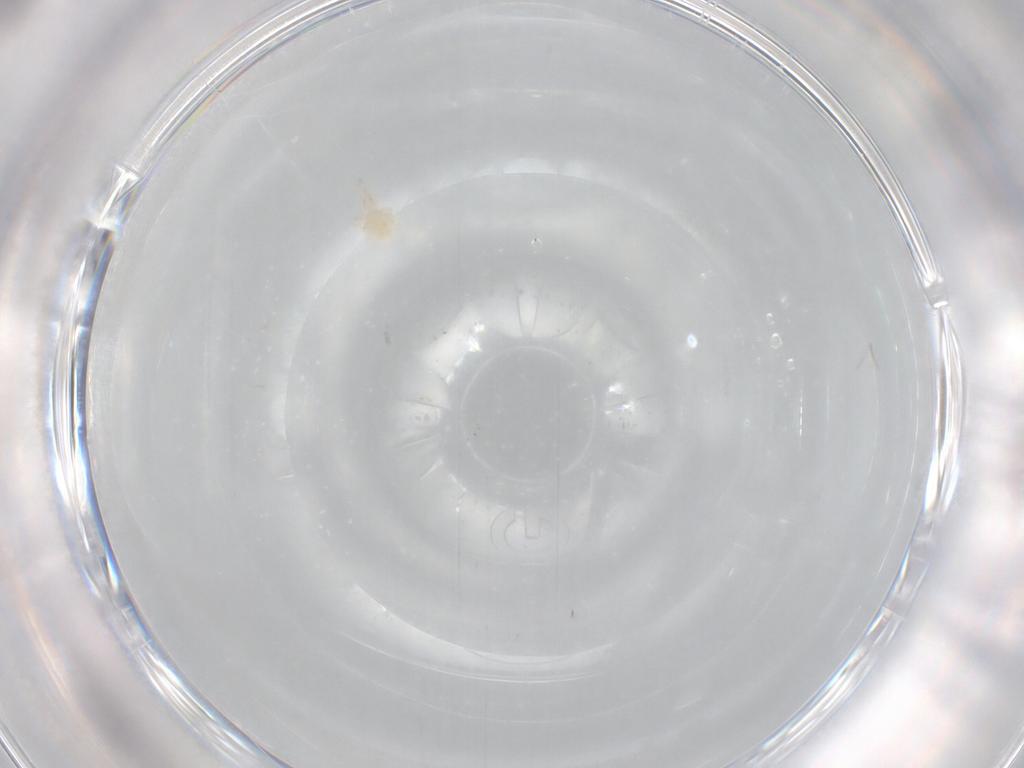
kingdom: Animalia
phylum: Arthropoda
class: Arachnida
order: Trombidiformes
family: Cunaxidae
